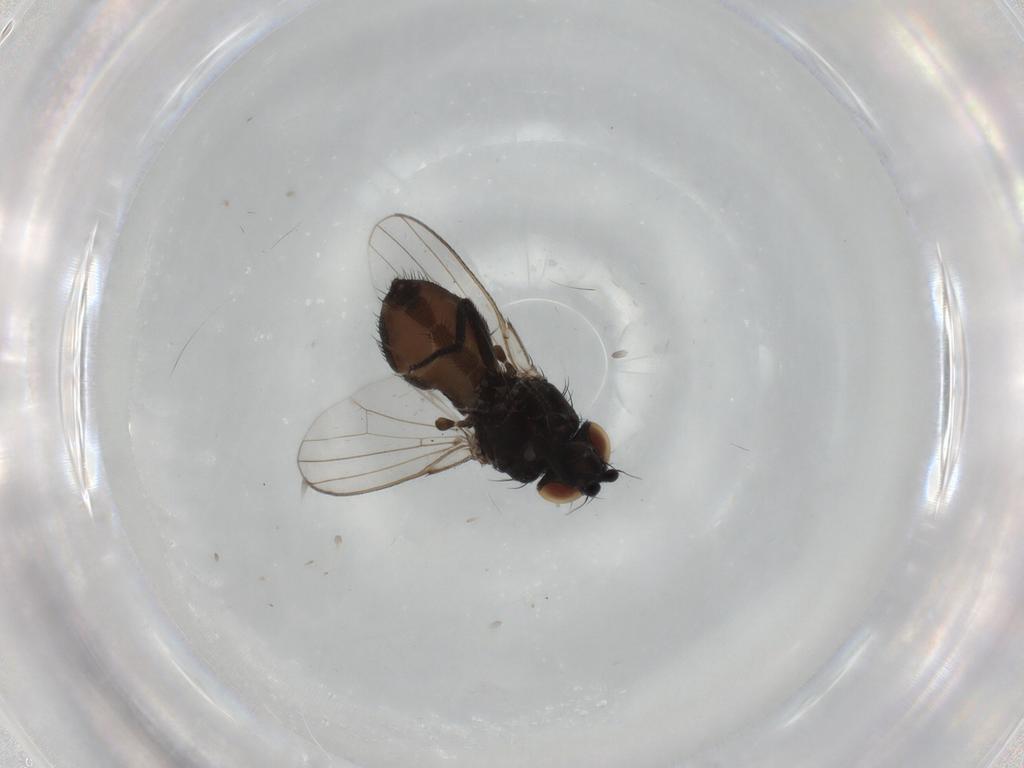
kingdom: Animalia
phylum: Arthropoda
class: Insecta
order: Diptera
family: Milichiidae
